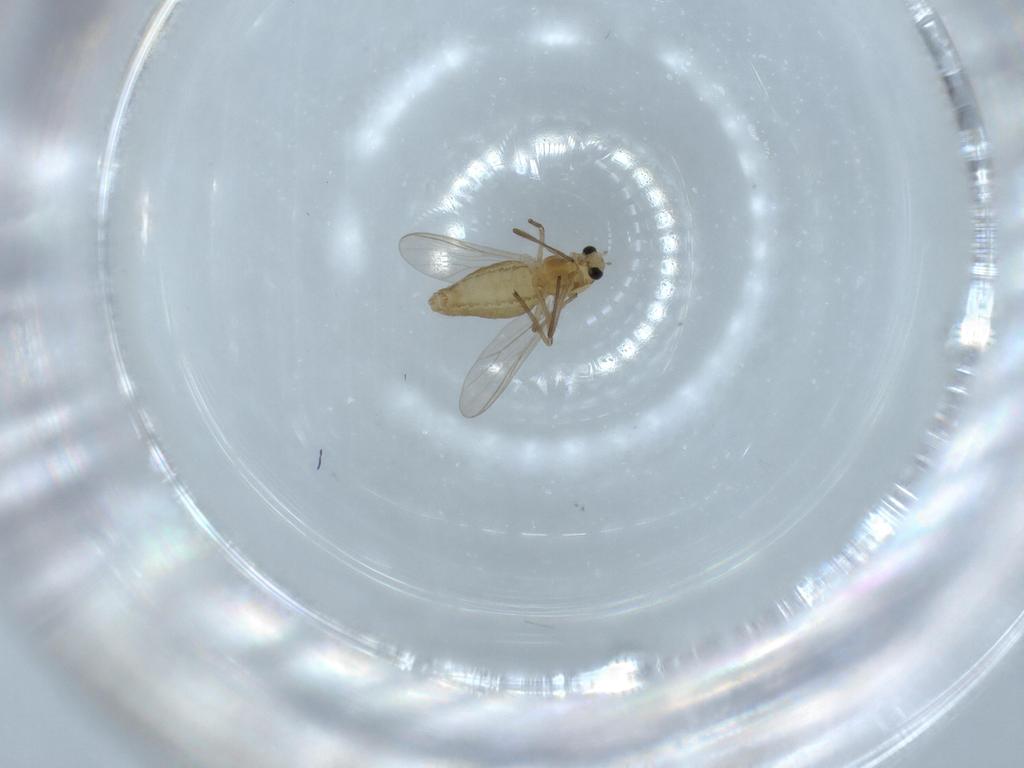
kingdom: Animalia
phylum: Arthropoda
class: Insecta
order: Diptera
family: Chironomidae
